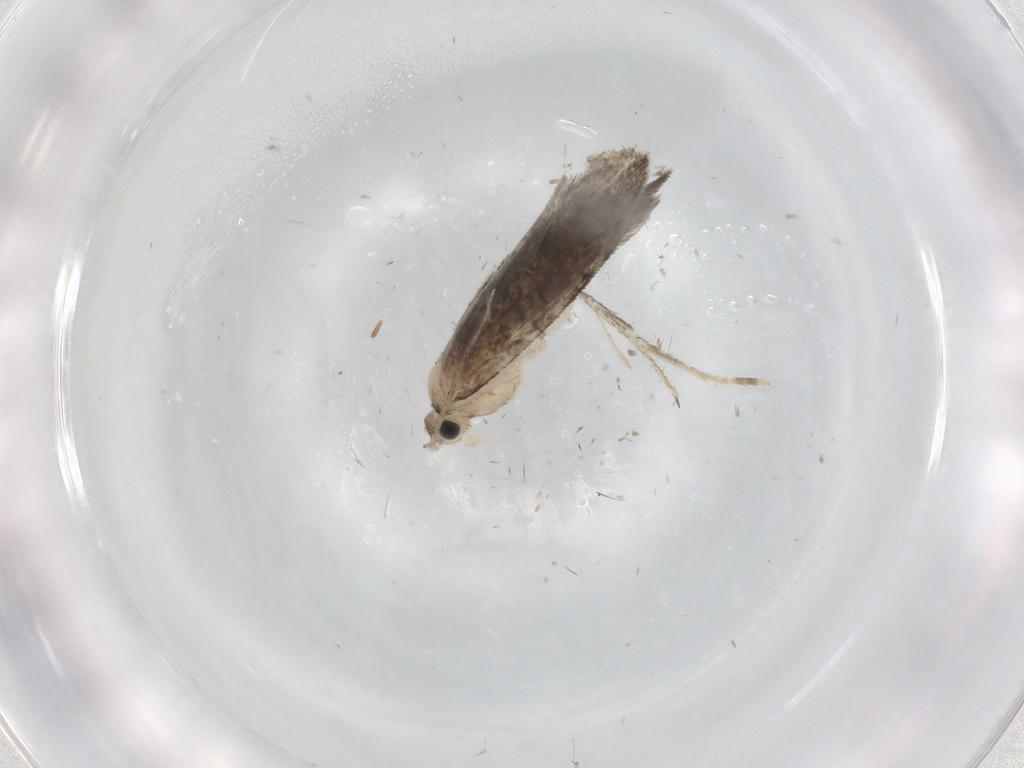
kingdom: Animalia
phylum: Arthropoda
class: Insecta
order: Lepidoptera
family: Tineidae
